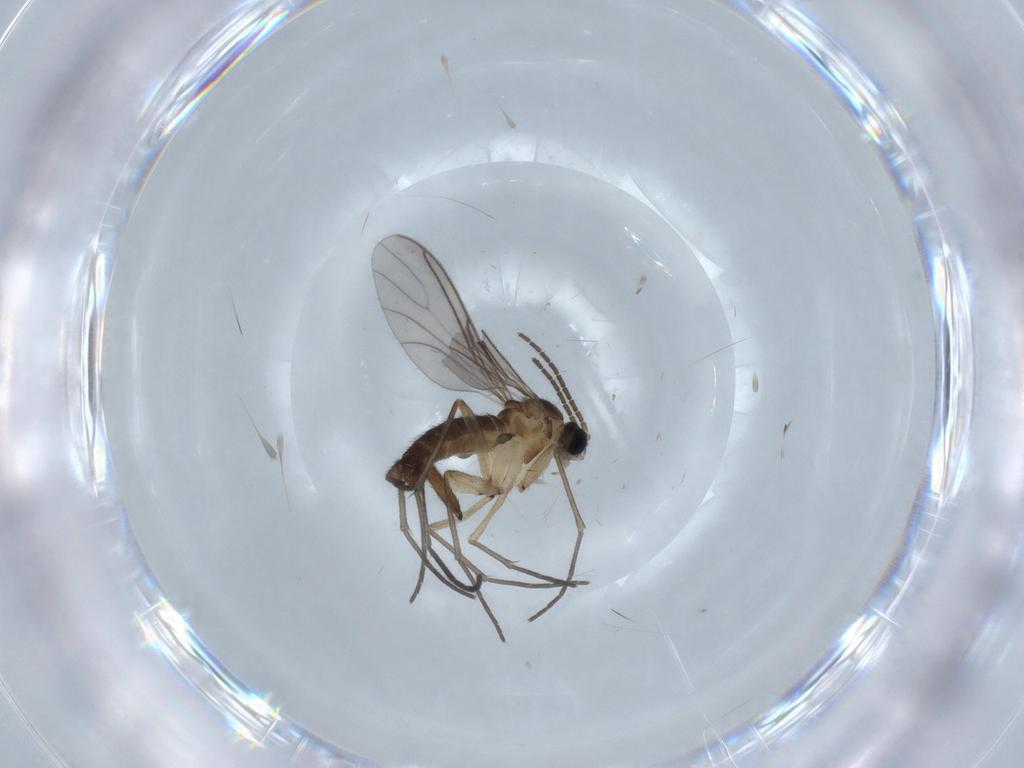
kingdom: Animalia
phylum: Arthropoda
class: Insecta
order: Diptera
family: Sciaridae
